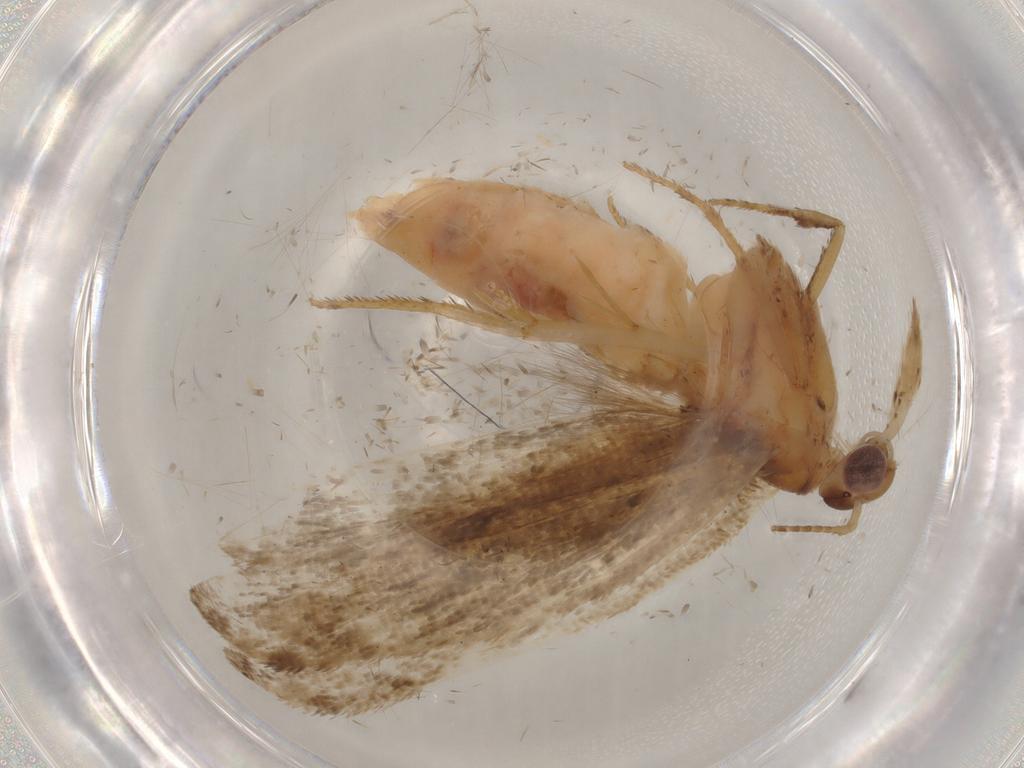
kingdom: Animalia
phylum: Arthropoda
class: Insecta
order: Lepidoptera
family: Gelechiidae
